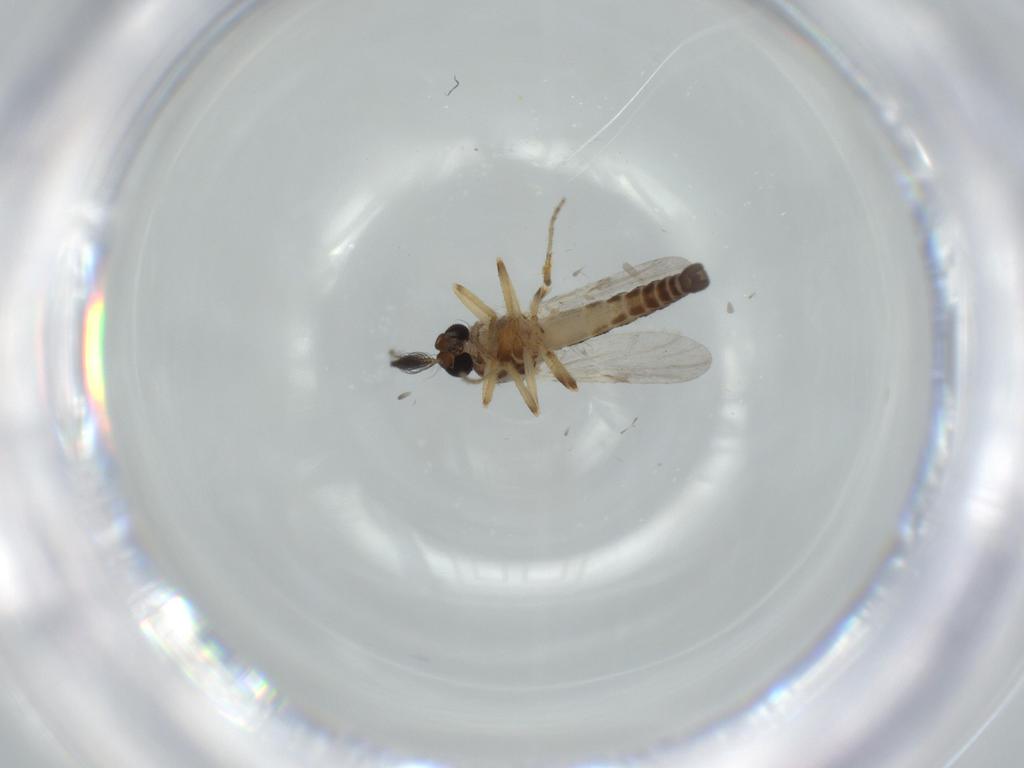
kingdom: Animalia
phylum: Arthropoda
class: Insecta
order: Diptera
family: Ceratopogonidae
